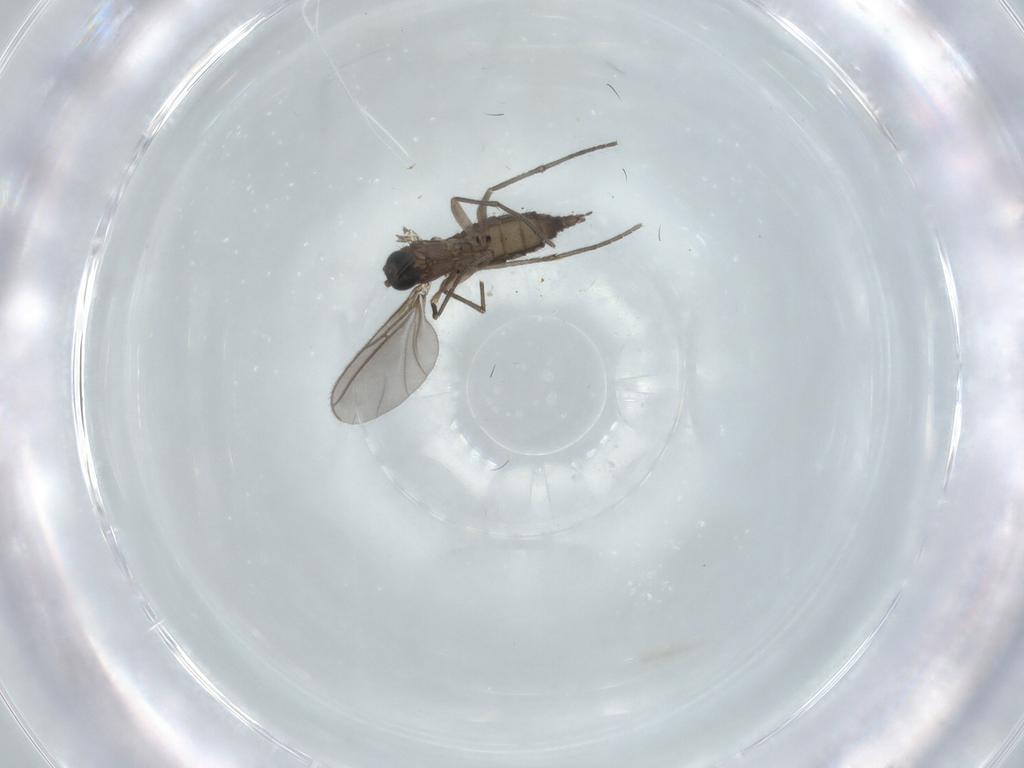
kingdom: Animalia
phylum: Arthropoda
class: Insecta
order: Diptera
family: Sciaridae
